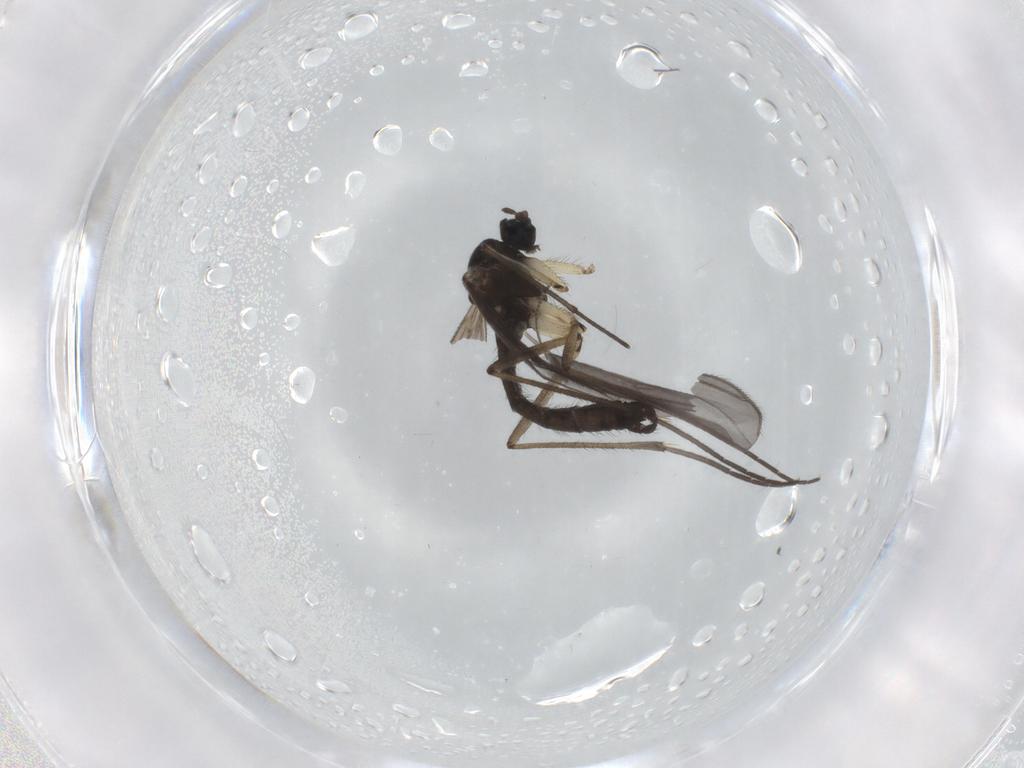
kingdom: Animalia
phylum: Arthropoda
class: Insecta
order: Diptera
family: Sciaridae
